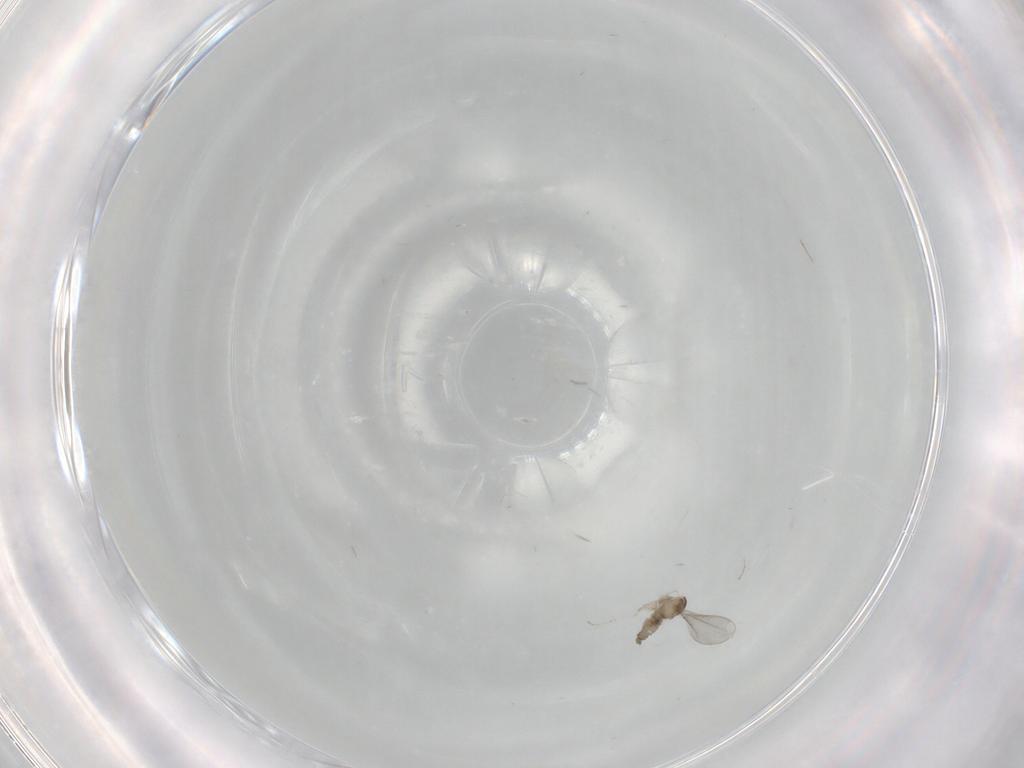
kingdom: Animalia
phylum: Arthropoda
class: Insecta
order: Diptera
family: Cecidomyiidae
